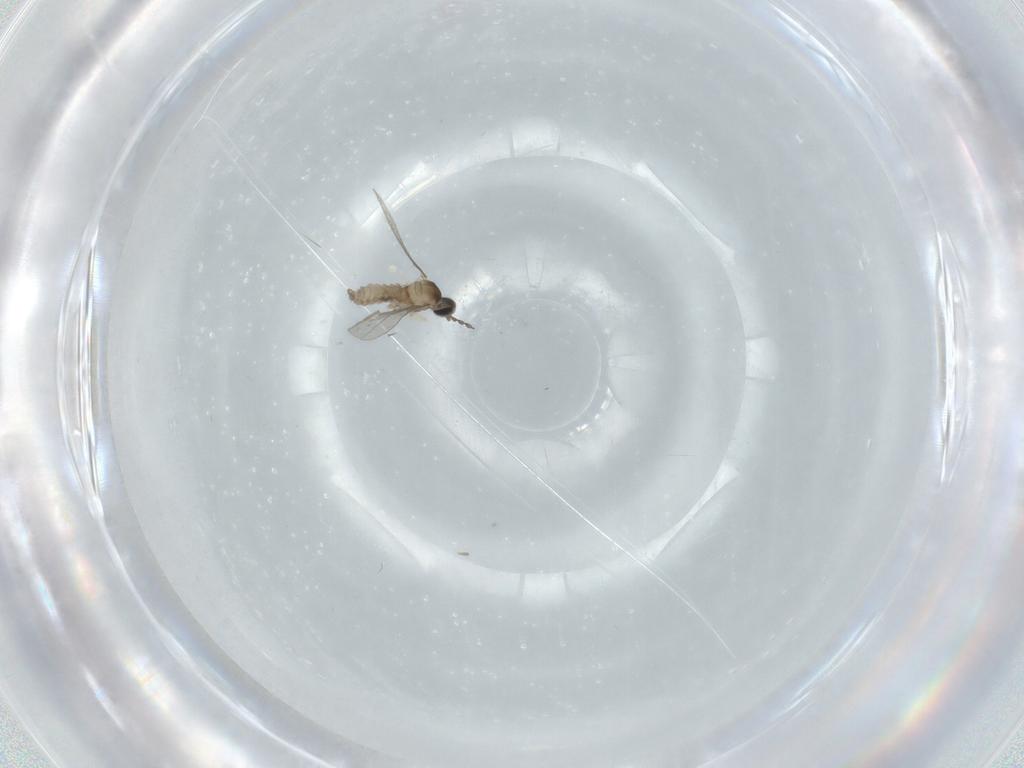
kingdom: Animalia
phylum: Arthropoda
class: Insecta
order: Diptera
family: Cecidomyiidae
